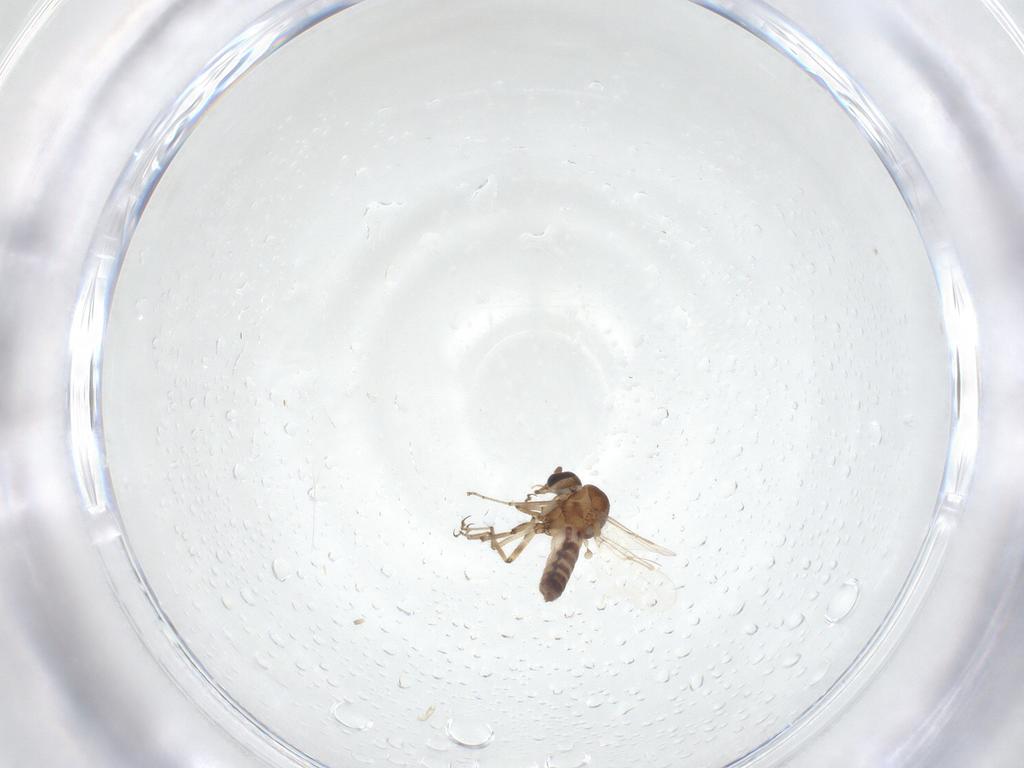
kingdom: Animalia
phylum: Arthropoda
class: Insecta
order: Diptera
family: Ceratopogonidae
